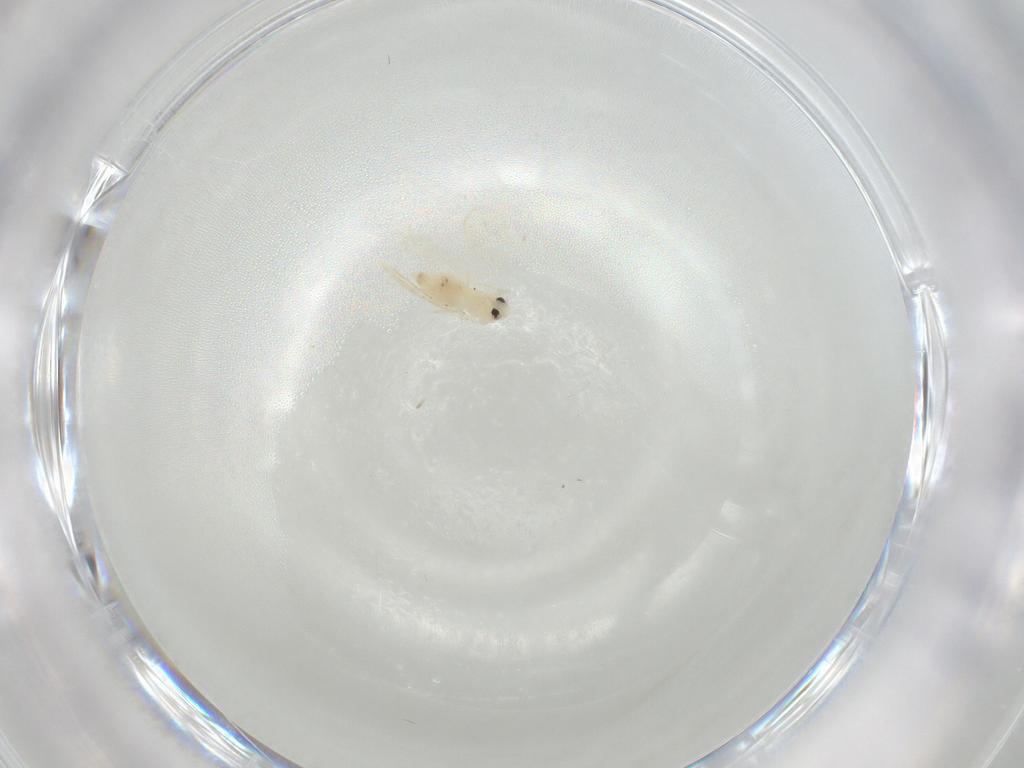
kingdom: Animalia
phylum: Arthropoda
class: Insecta
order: Hemiptera
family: Aleyrodidae
